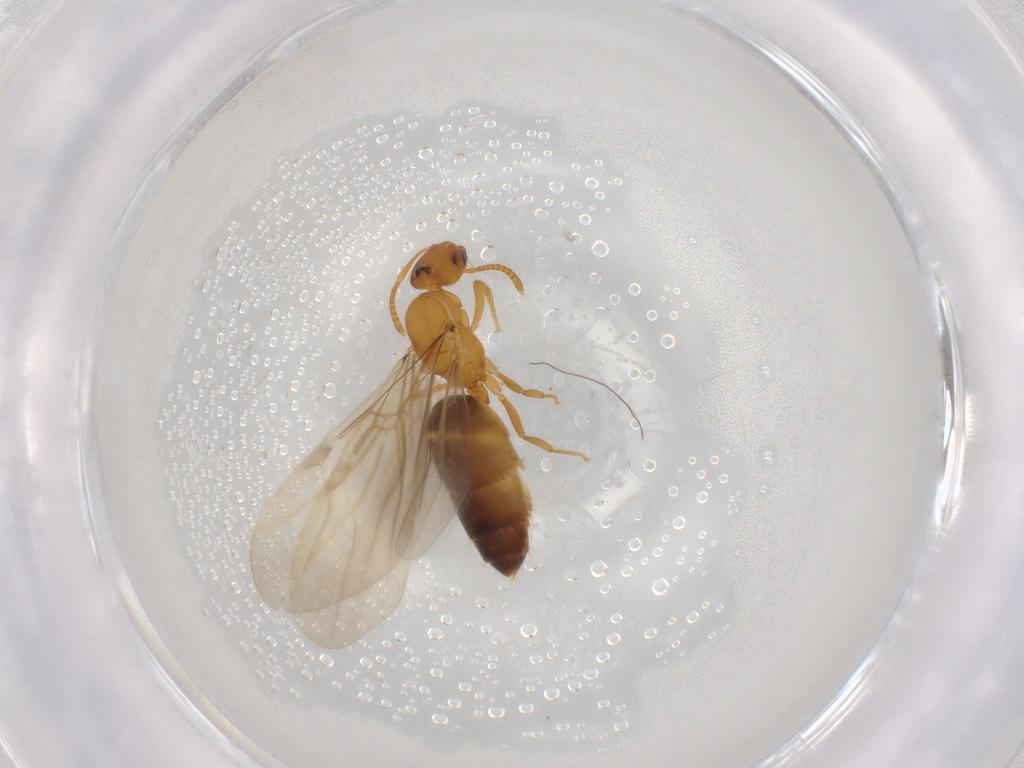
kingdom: Animalia
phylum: Arthropoda
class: Insecta
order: Hymenoptera
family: Formicidae
